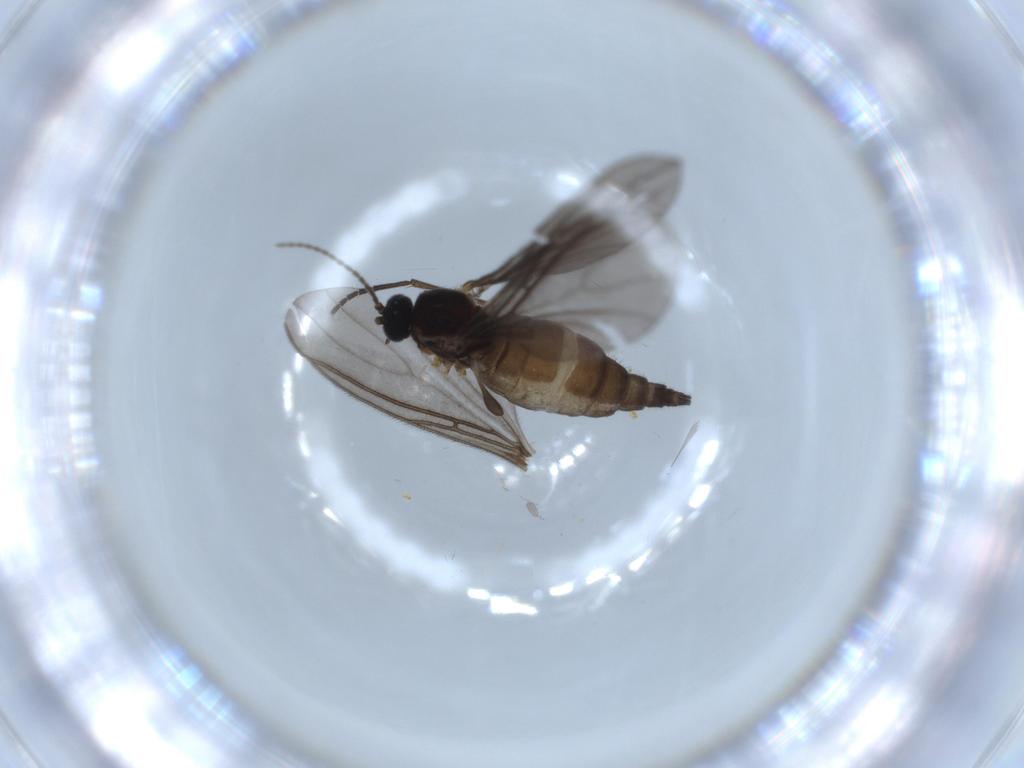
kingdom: Animalia
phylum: Arthropoda
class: Insecta
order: Diptera
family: Sciaridae
